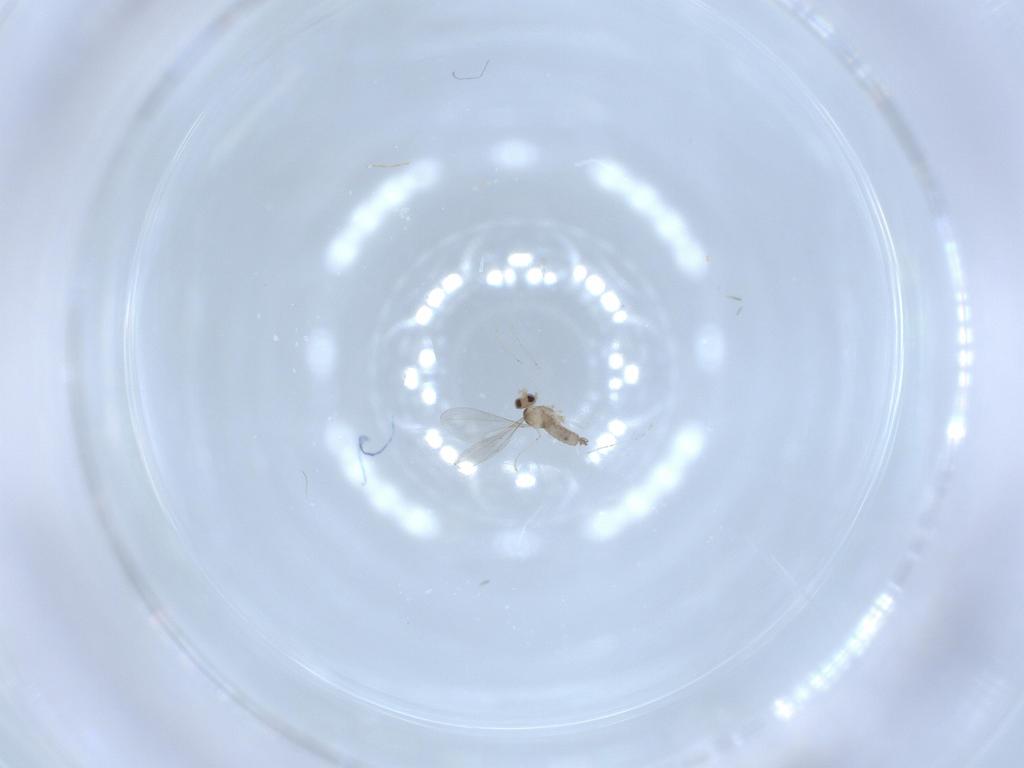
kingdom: Animalia
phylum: Arthropoda
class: Insecta
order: Diptera
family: Cecidomyiidae
